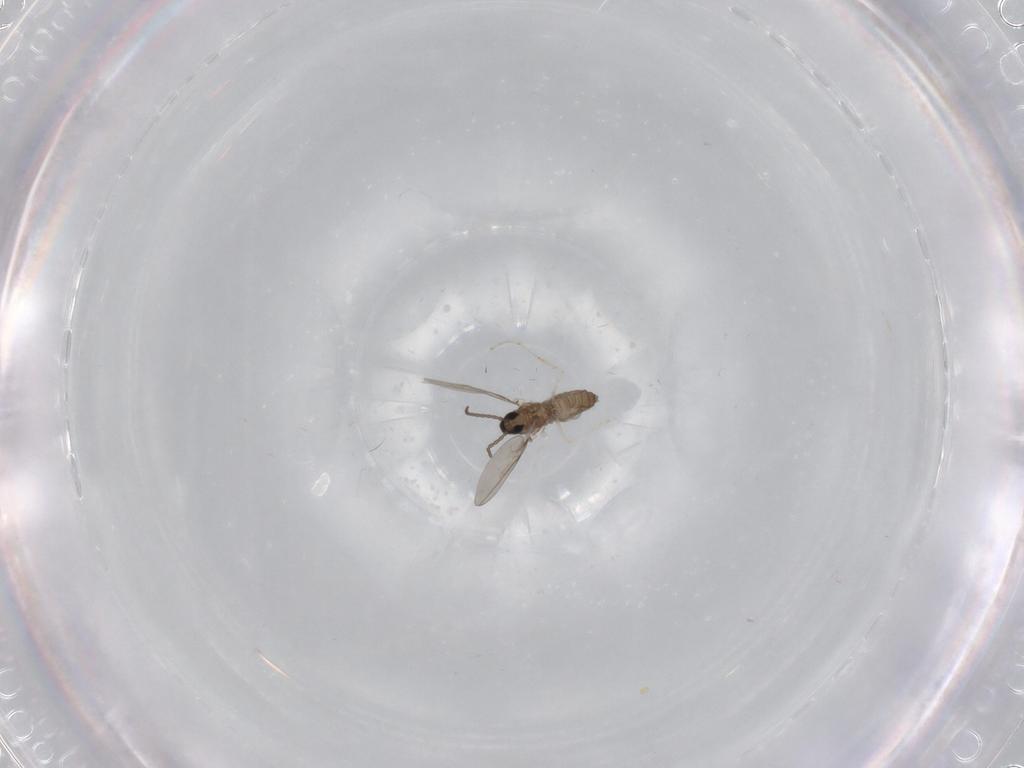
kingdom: Animalia
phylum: Arthropoda
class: Insecta
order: Diptera
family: Cecidomyiidae
